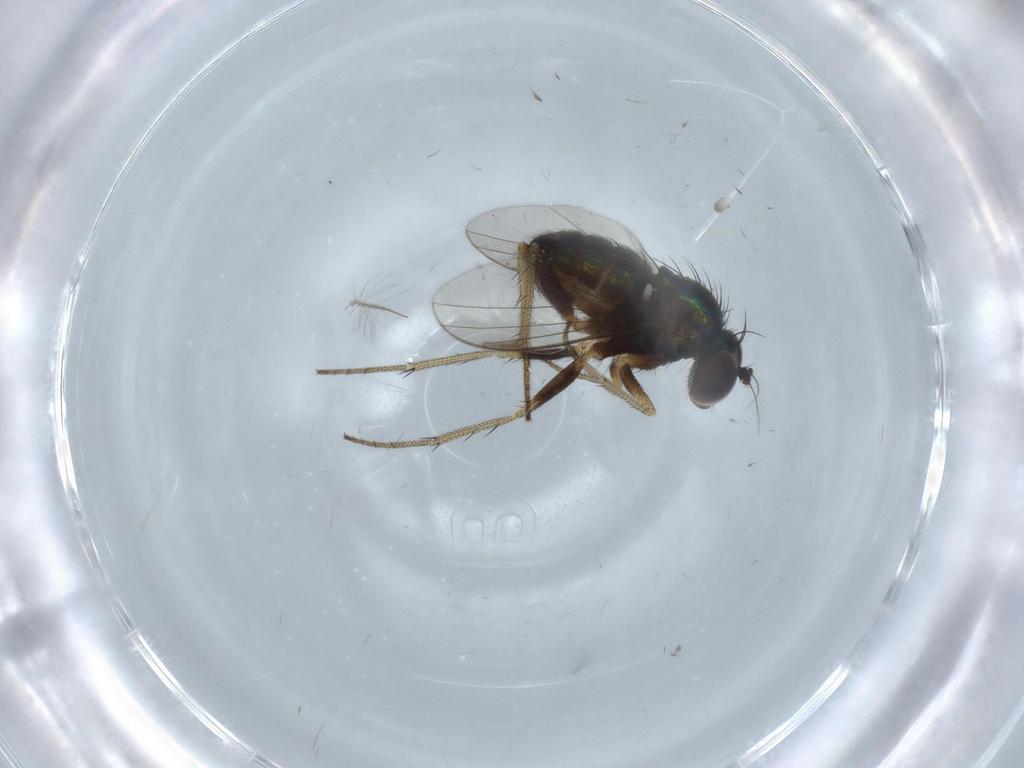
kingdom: Animalia
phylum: Arthropoda
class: Insecta
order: Diptera
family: Dolichopodidae
